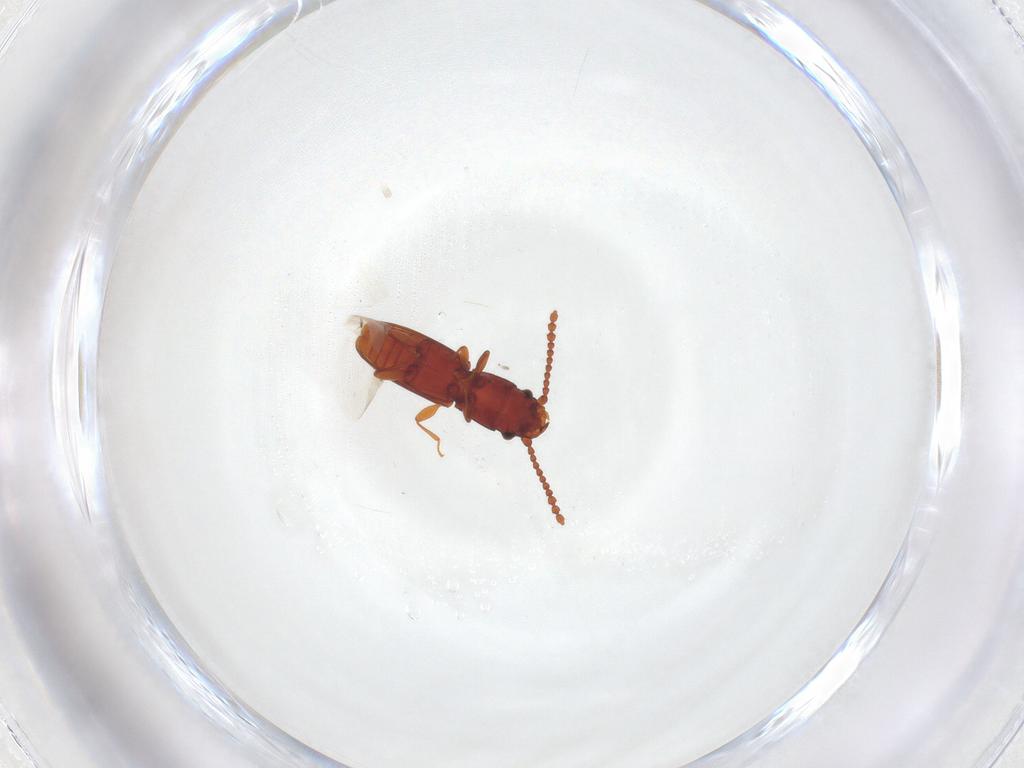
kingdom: Animalia
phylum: Arthropoda
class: Insecta
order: Coleoptera
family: Laemophloeidae
